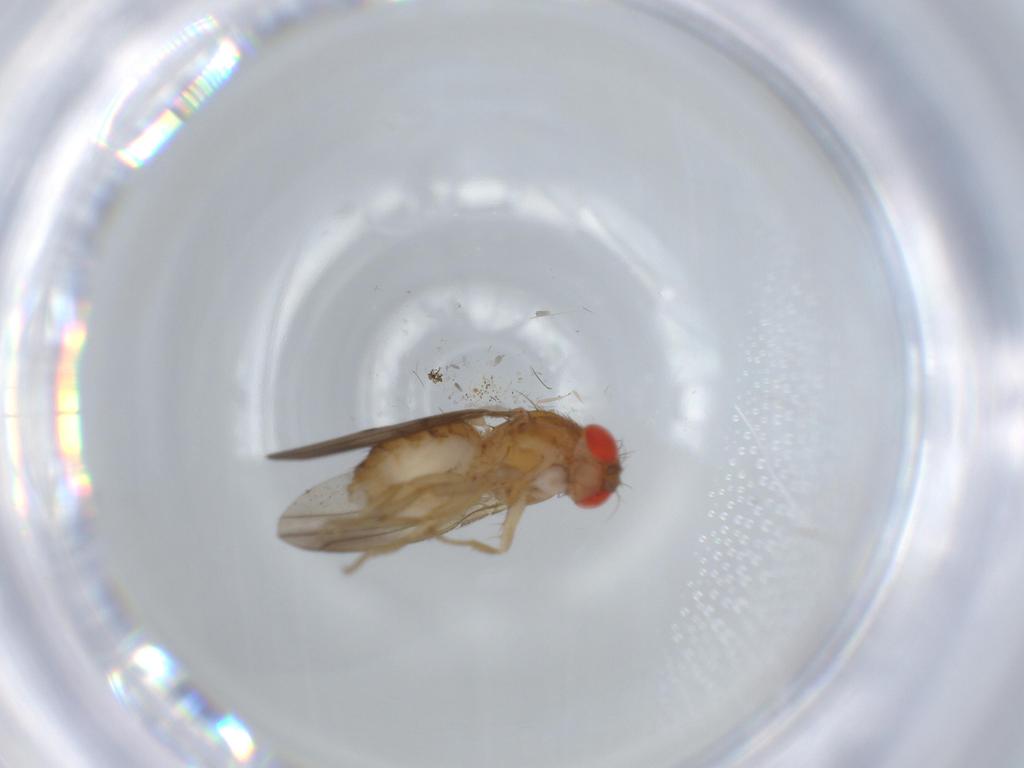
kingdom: Animalia
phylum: Arthropoda
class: Insecta
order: Diptera
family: Drosophilidae
